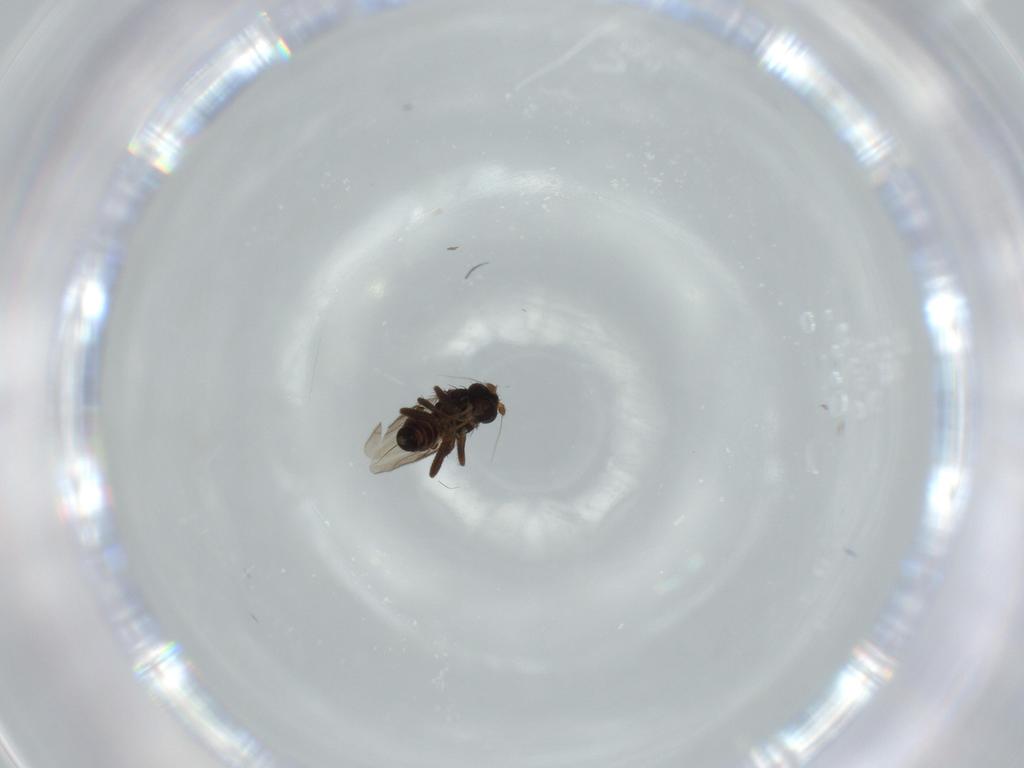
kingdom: Animalia
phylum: Arthropoda
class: Insecta
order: Diptera
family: Sphaeroceridae
